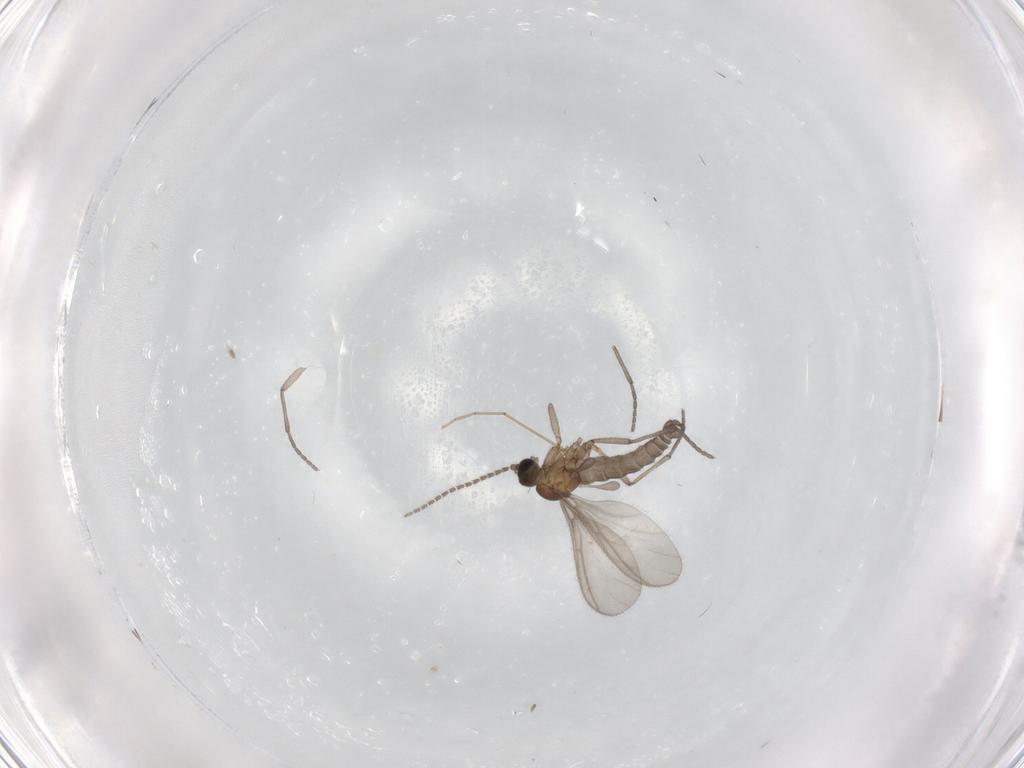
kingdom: Animalia
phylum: Arthropoda
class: Insecta
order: Diptera
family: Sciaridae
